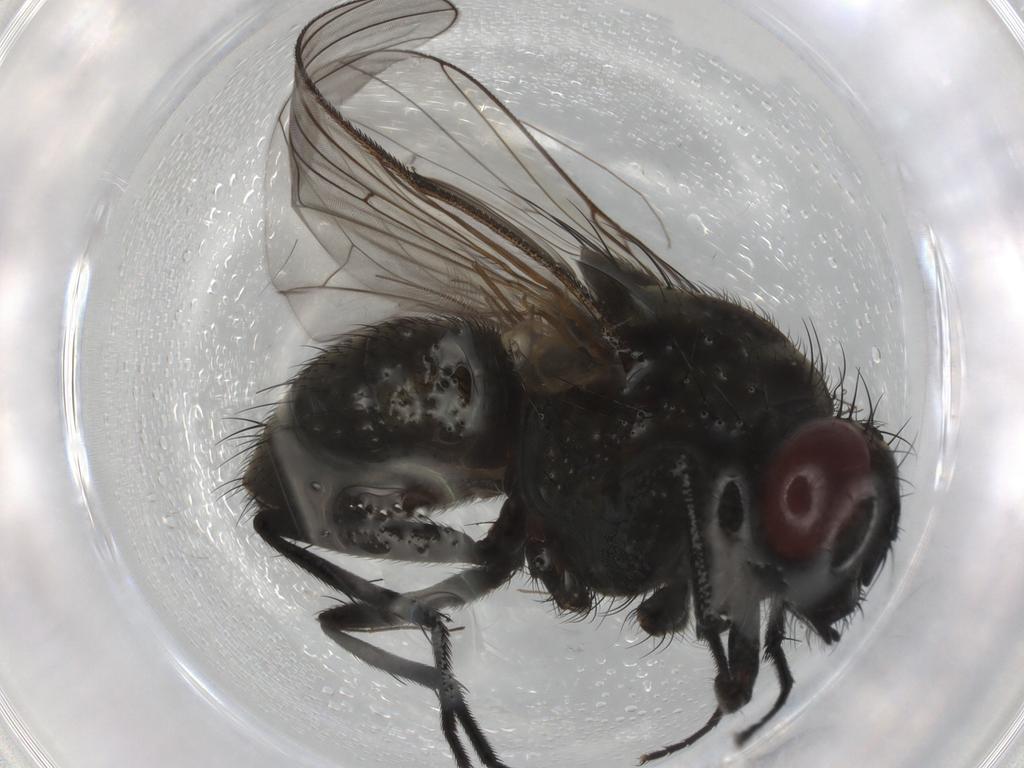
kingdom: Animalia
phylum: Arthropoda
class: Insecta
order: Diptera
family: Muscidae
